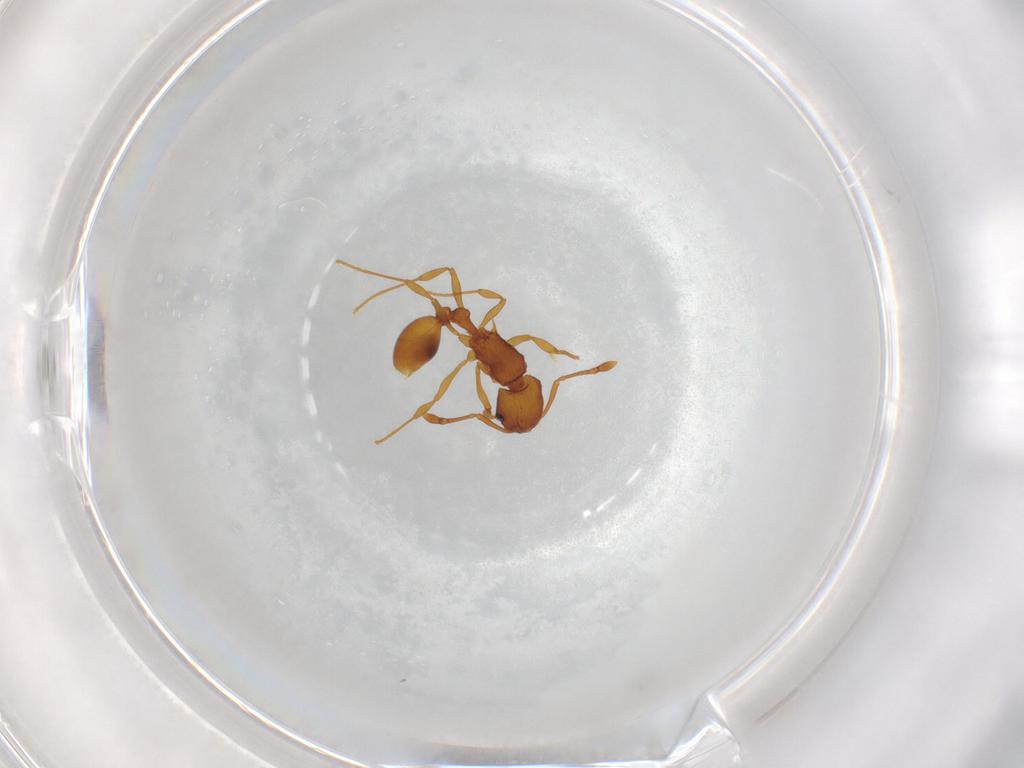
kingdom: Animalia
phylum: Arthropoda
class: Insecta
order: Hymenoptera
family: Formicidae
